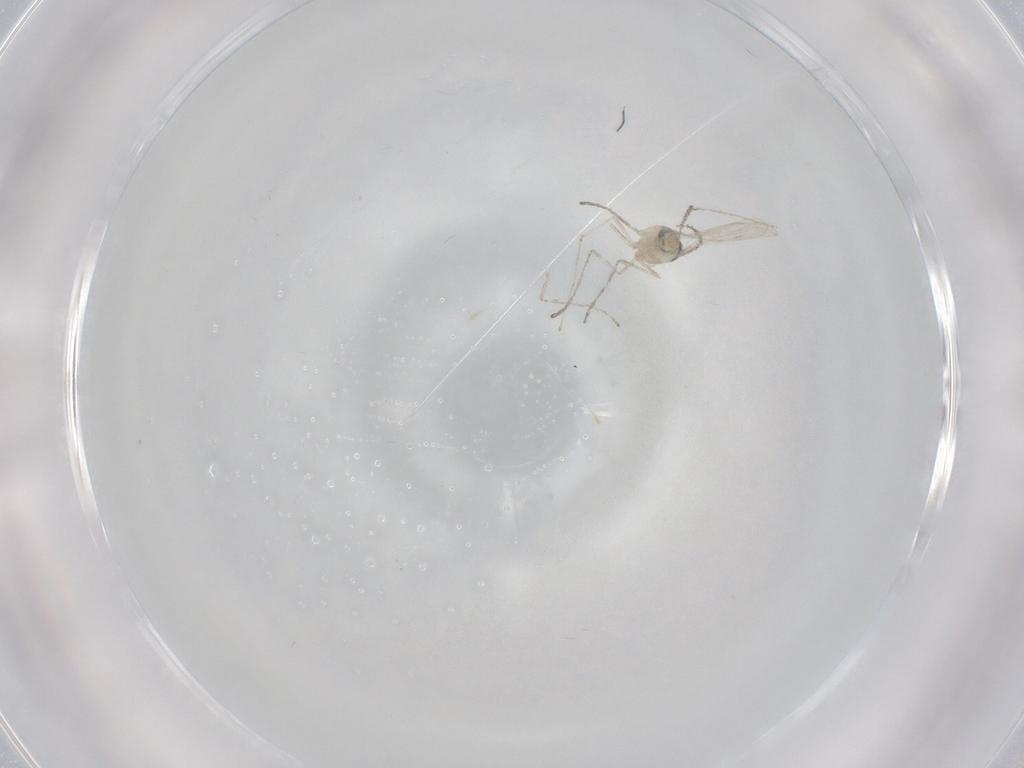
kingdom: Animalia
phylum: Arthropoda
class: Insecta
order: Diptera
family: Cecidomyiidae
